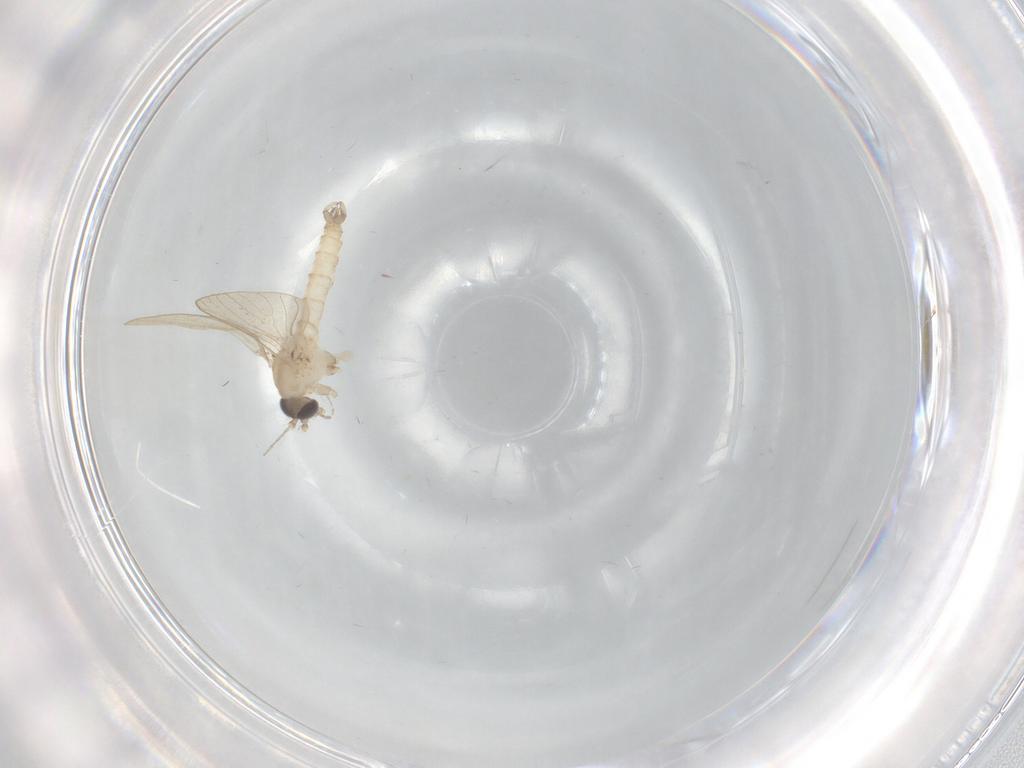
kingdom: Animalia
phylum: Arthropoda
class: Insecta
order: Diptera
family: Psychodidae
